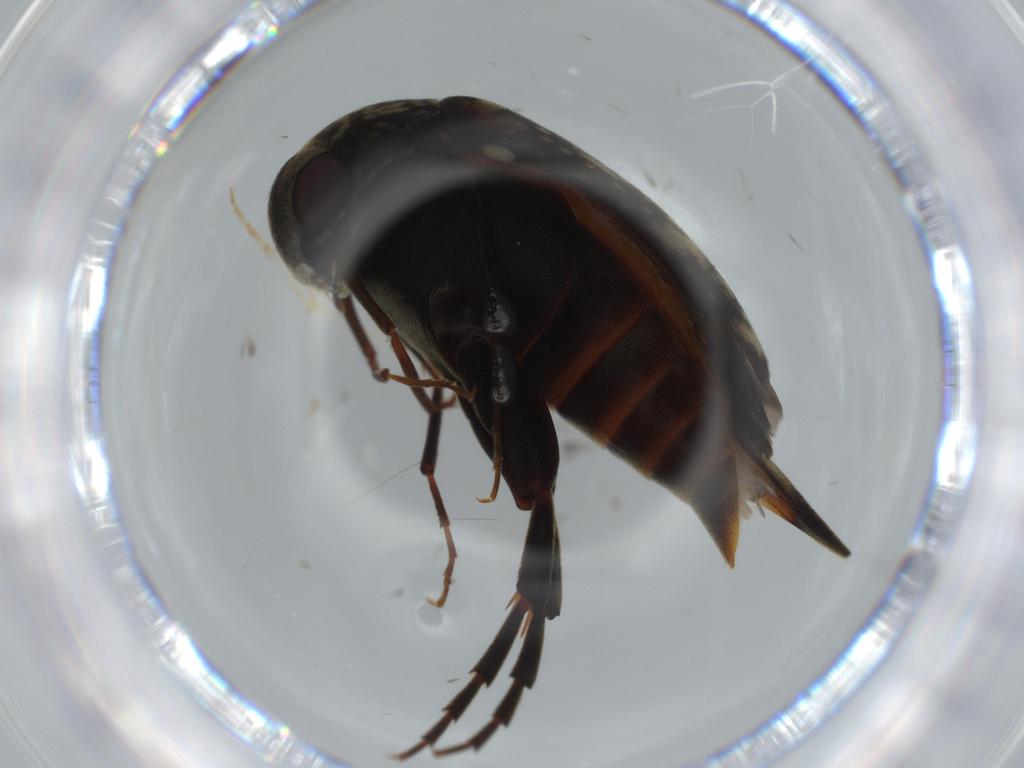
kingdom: Animalia
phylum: Arthropoda
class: Insecta
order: Coleoptera
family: Mordellidae
